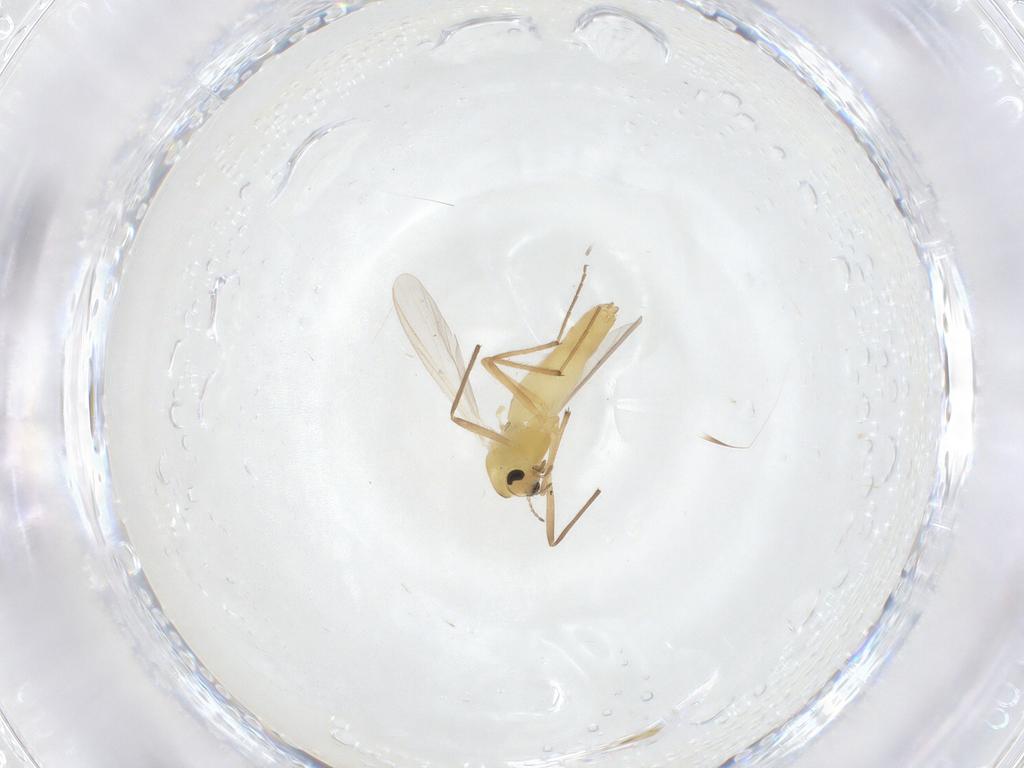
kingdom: Animalia
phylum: Arthropoda
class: Insecta
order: Diptera
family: Chironomidae
